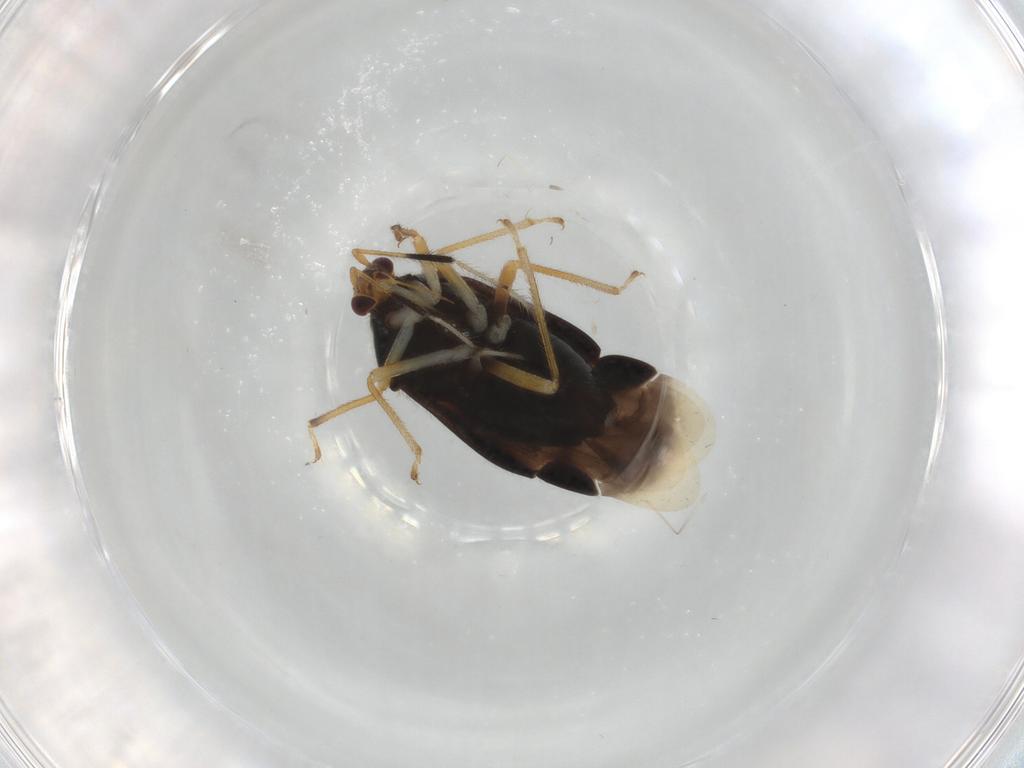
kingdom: Animalia
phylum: Arthropoda
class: Insecta
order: Hemiptera
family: Miridae
